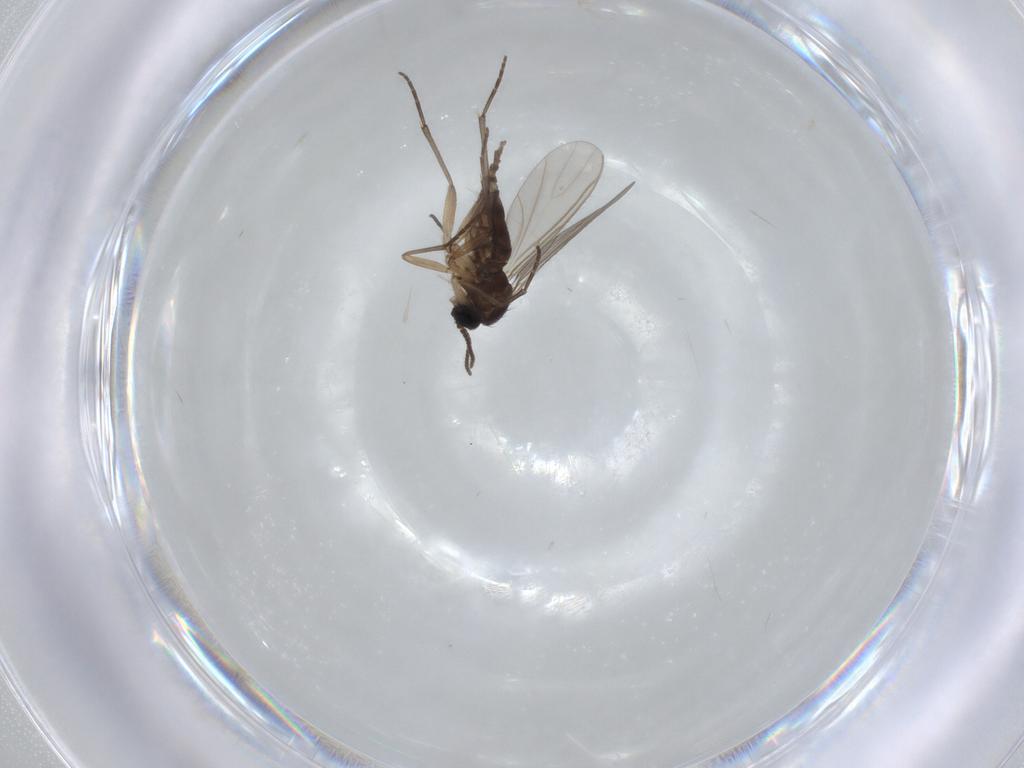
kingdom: Animalia
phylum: Arthropoda
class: Insecta
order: Diptera
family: Sciaridae
